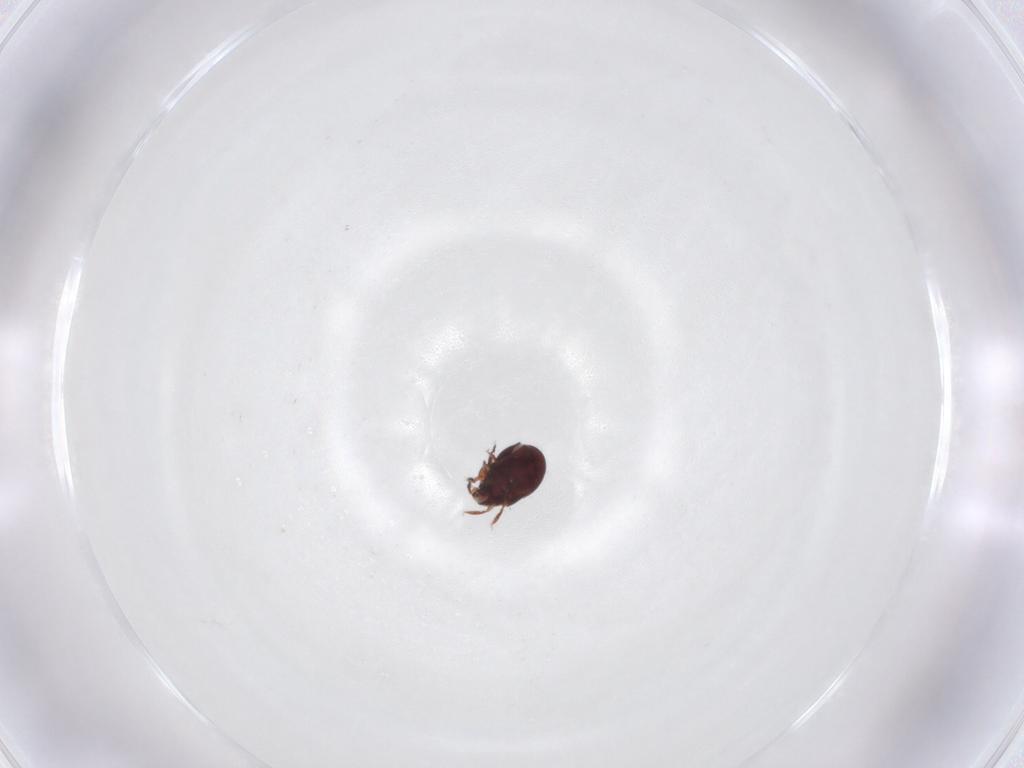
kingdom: Animalia
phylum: Arthropoda
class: Arachnida
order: Sarcoptiformes
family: Humerobatidae
